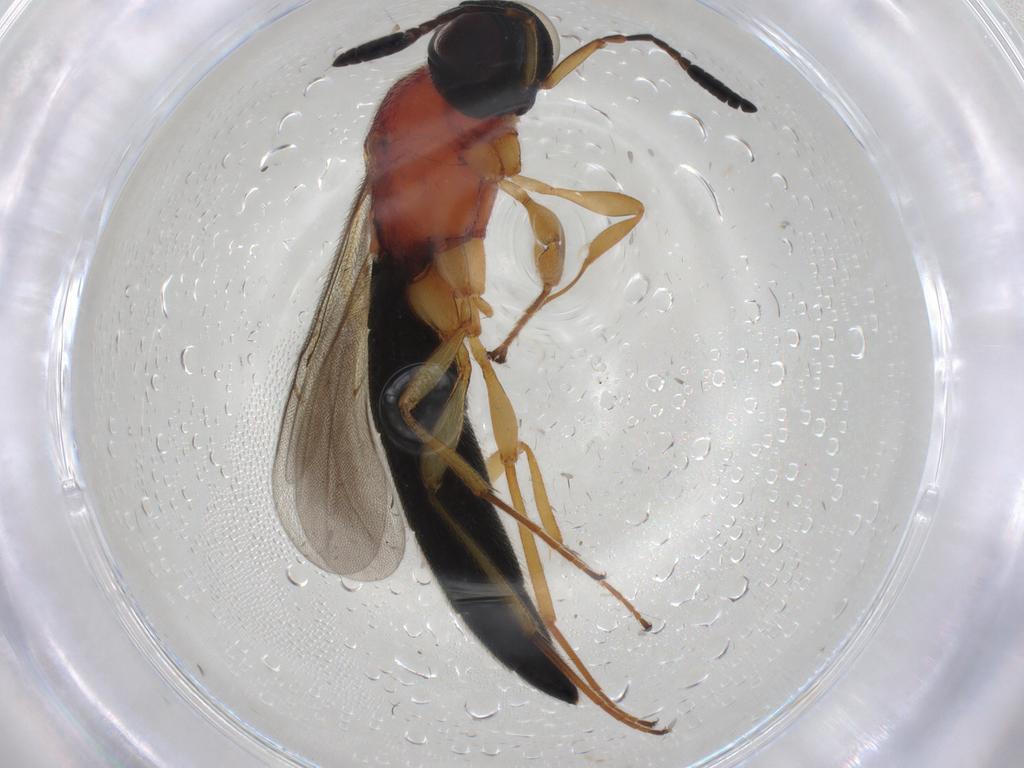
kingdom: Animalia
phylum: Arthropoda
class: Insecta
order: Hymenoptera
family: Scelionidae
